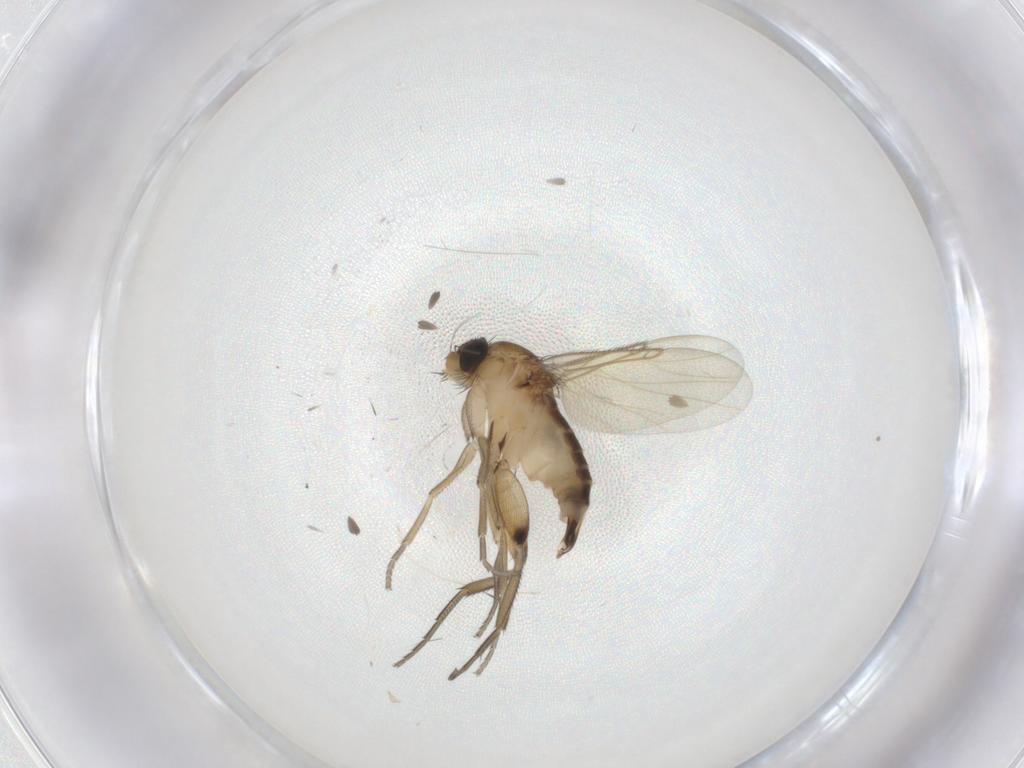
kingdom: Animalia
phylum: Arthropoda
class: Insecta
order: Diptera
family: Phoridae
